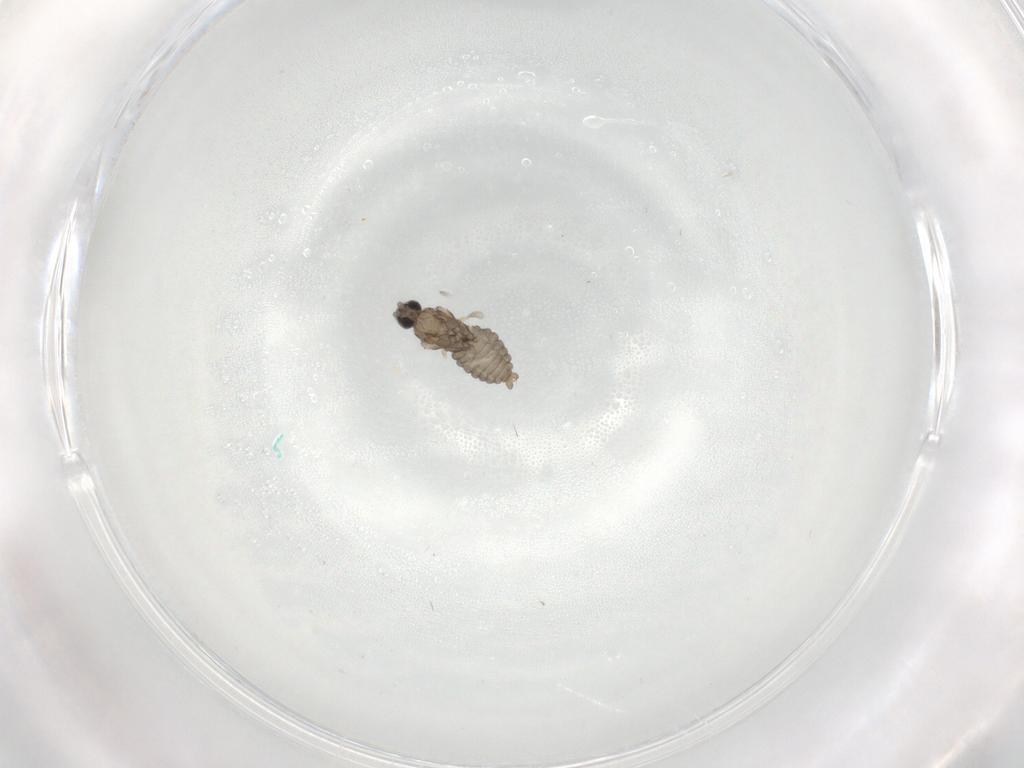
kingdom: Animalia
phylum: Arthropoda
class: Insecta
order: Diptera
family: Cecidomyiidae
